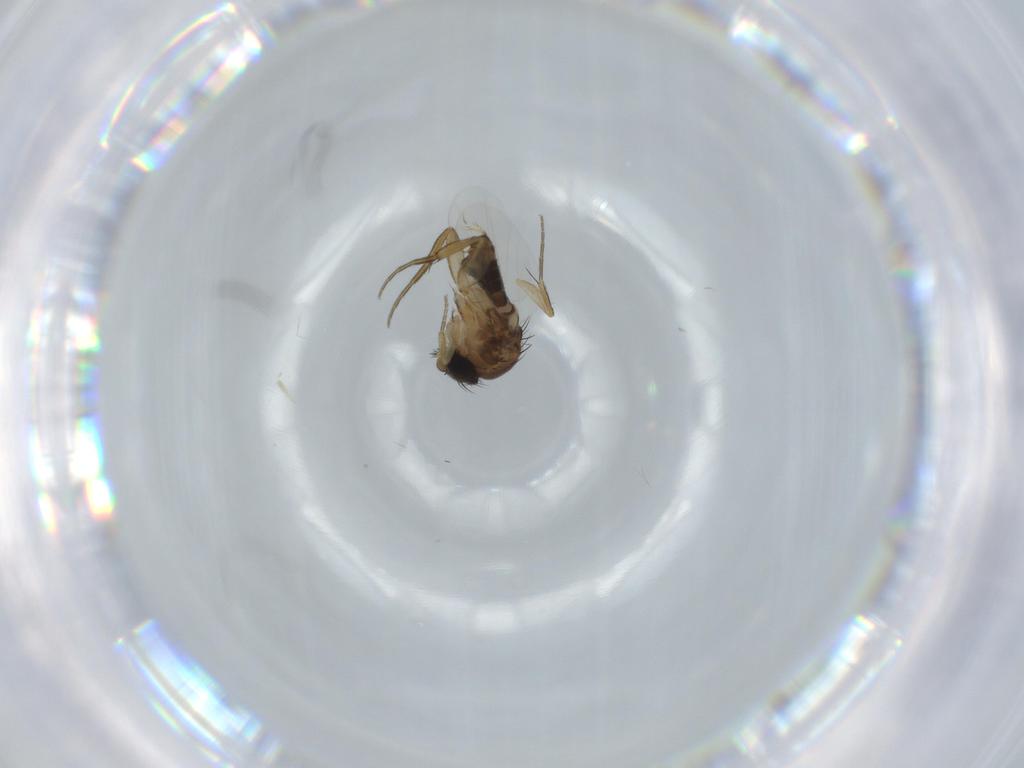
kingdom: Animalia
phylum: Arthropoda
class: Insecta
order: Diptera
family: Phoridae
